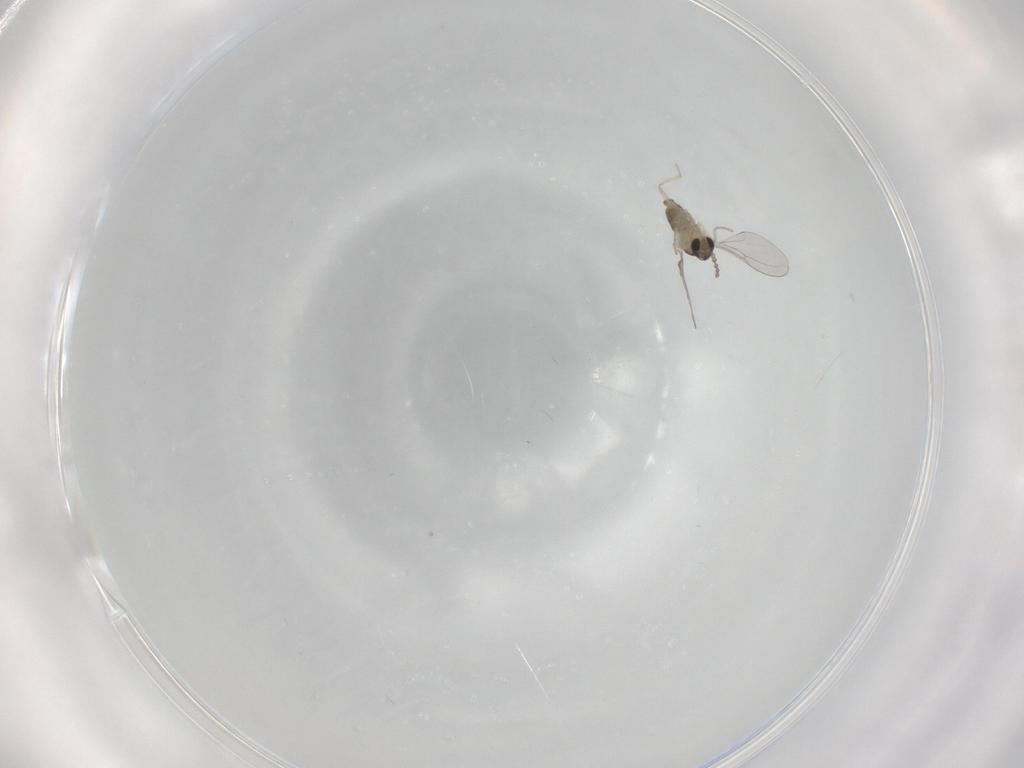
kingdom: Animalia
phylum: Arthropoda
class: Insecta
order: Diptera
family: Cecidomyiidae
